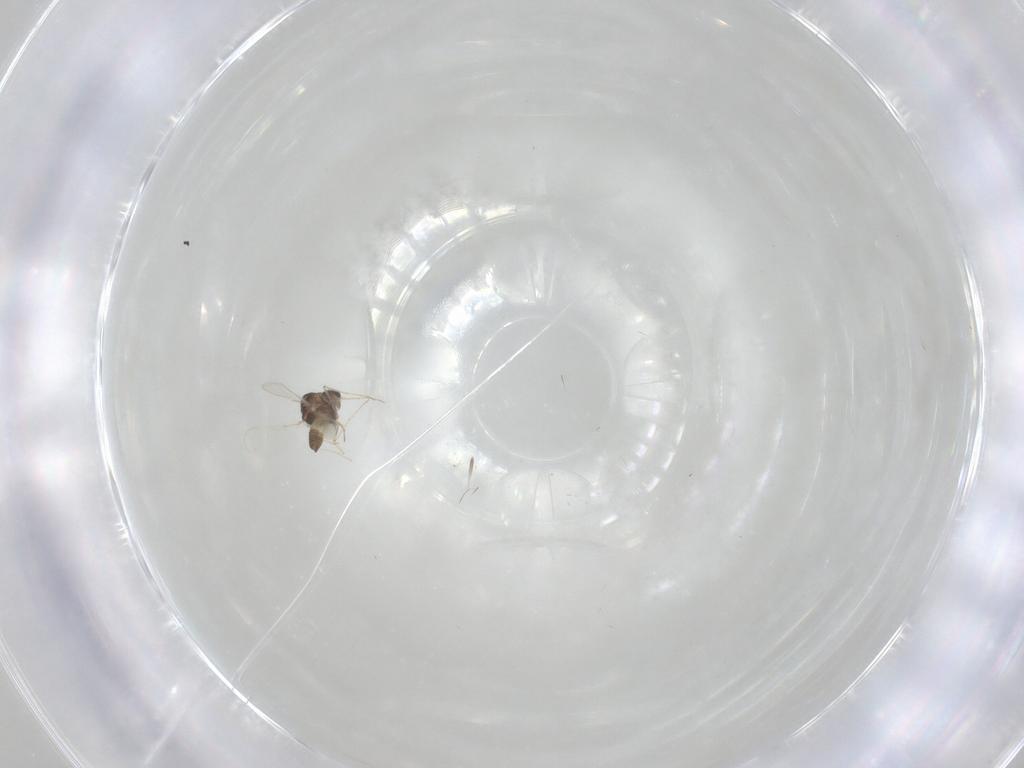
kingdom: Animalia
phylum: Arthropoda
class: Insecta
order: Diptera
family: Chironomidae
